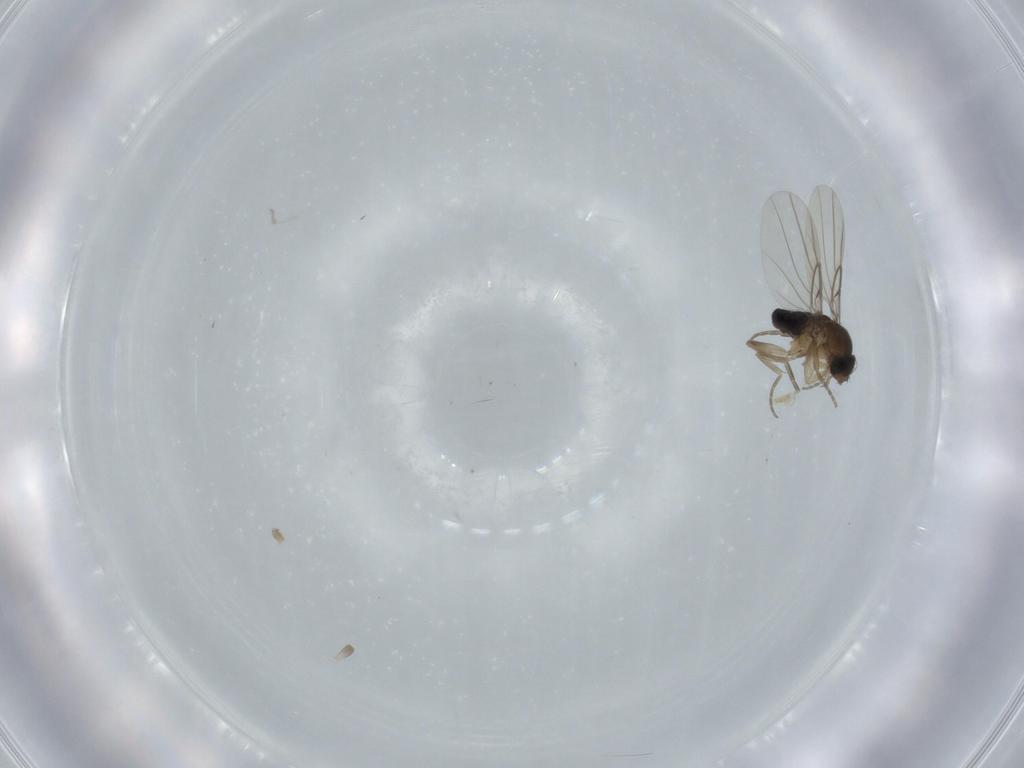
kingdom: Animalia
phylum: Arthropoda
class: Insecta
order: Diptera
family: Calliphoridae
